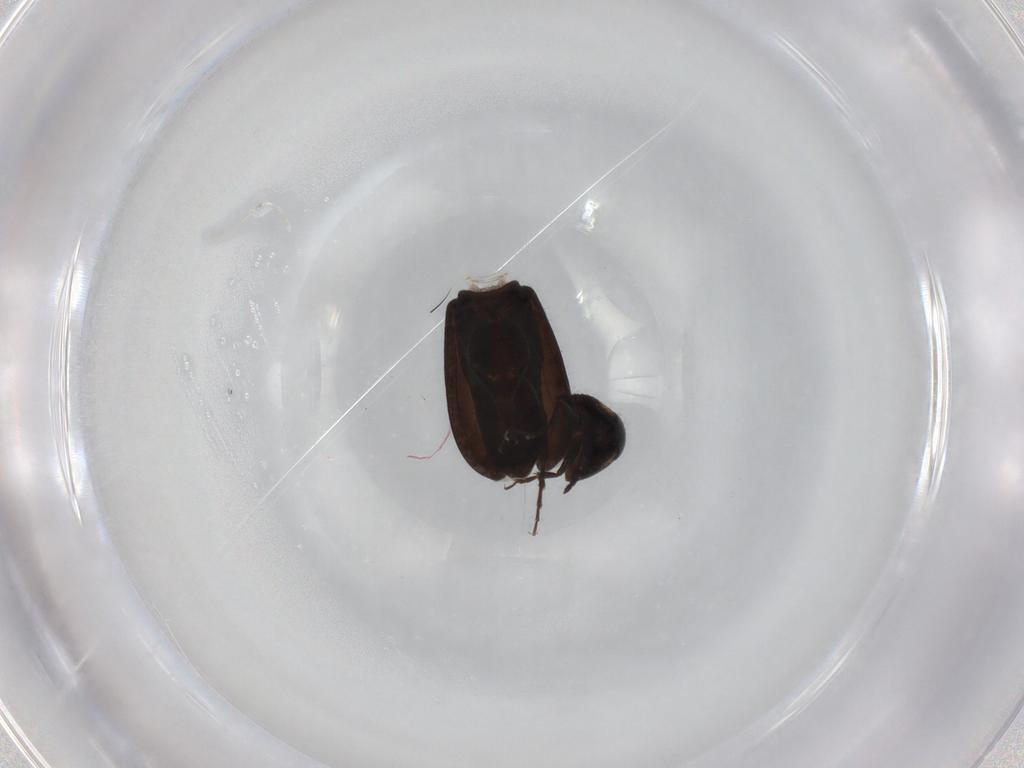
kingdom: Animalia
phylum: Arthropoda
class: Insecta
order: Coleoptera
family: Scraptiidae
